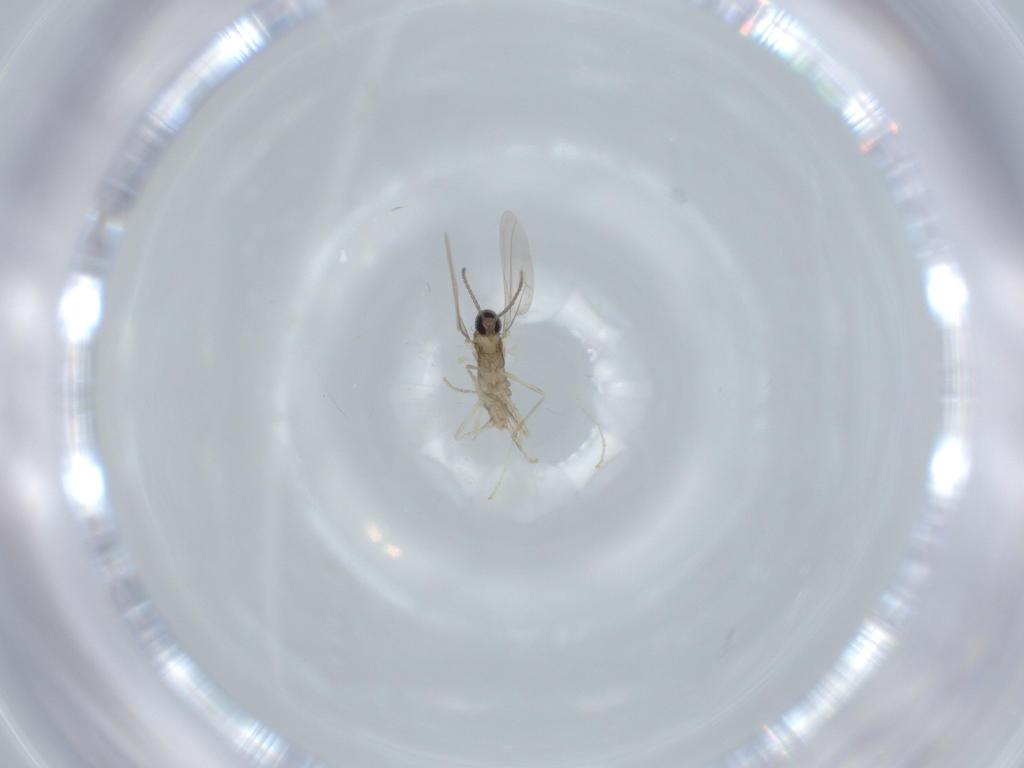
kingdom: Animalia
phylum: Arthropoda
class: Insecta
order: Diptera
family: Cecidomyiidae
